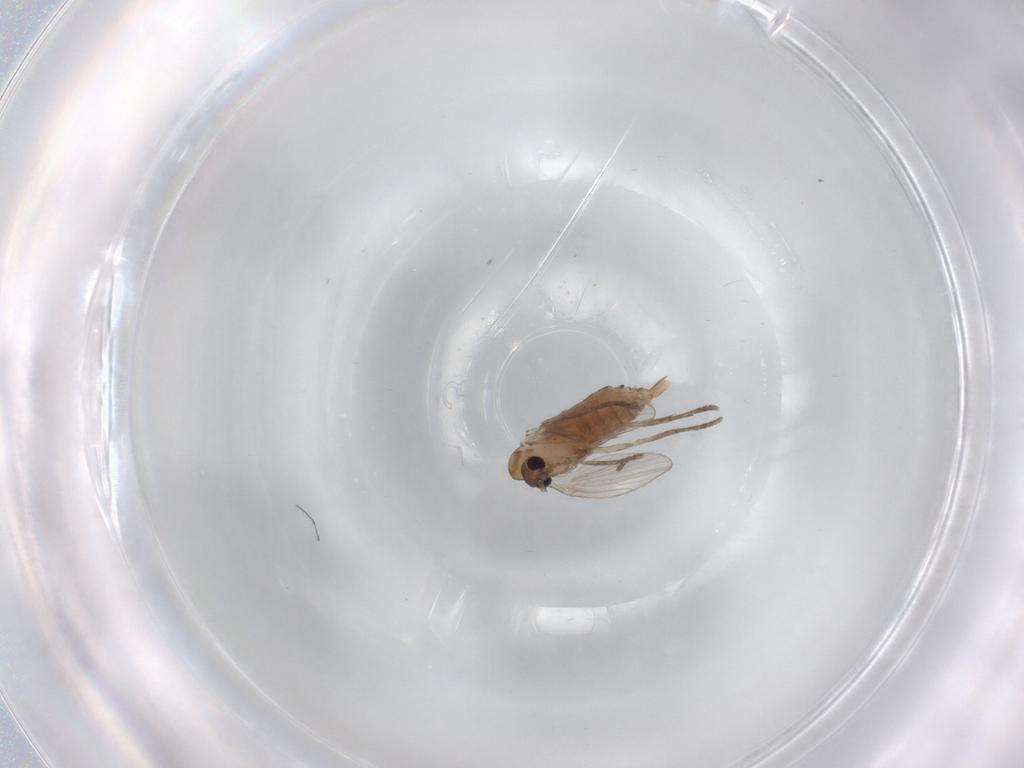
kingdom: Animalia
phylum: Arthropoda
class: Insecta
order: Diptera
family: Psychodidae
